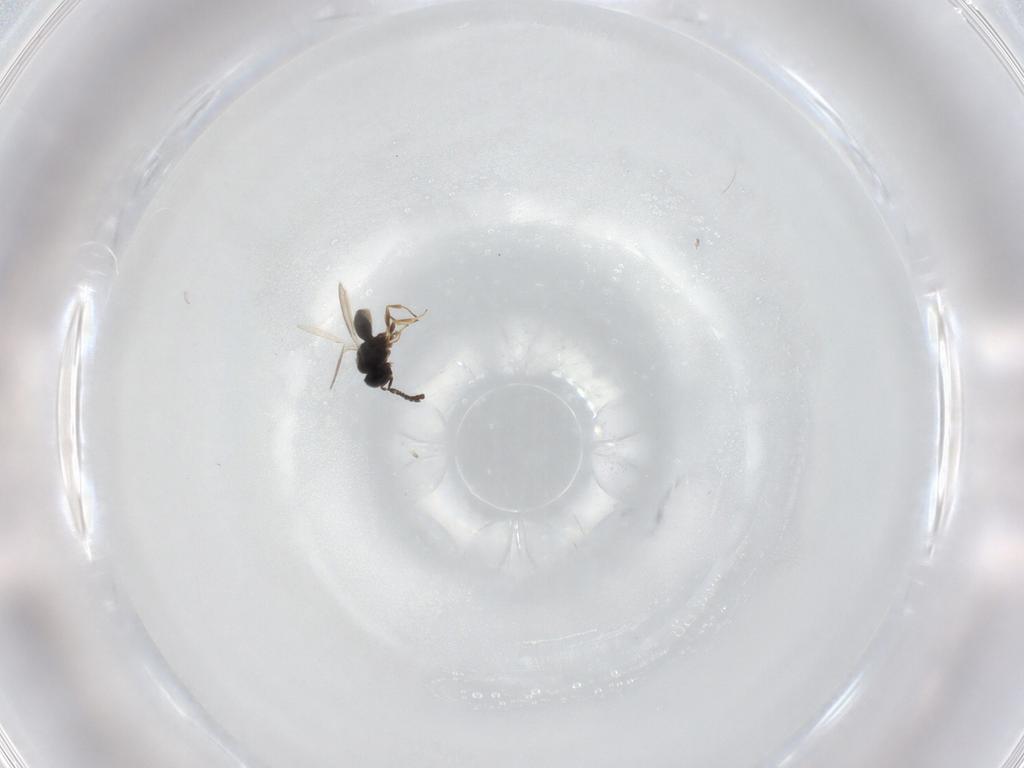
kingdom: Animalia
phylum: Arthropoda
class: Insecta
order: Hymenoptera
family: Scelionidae
